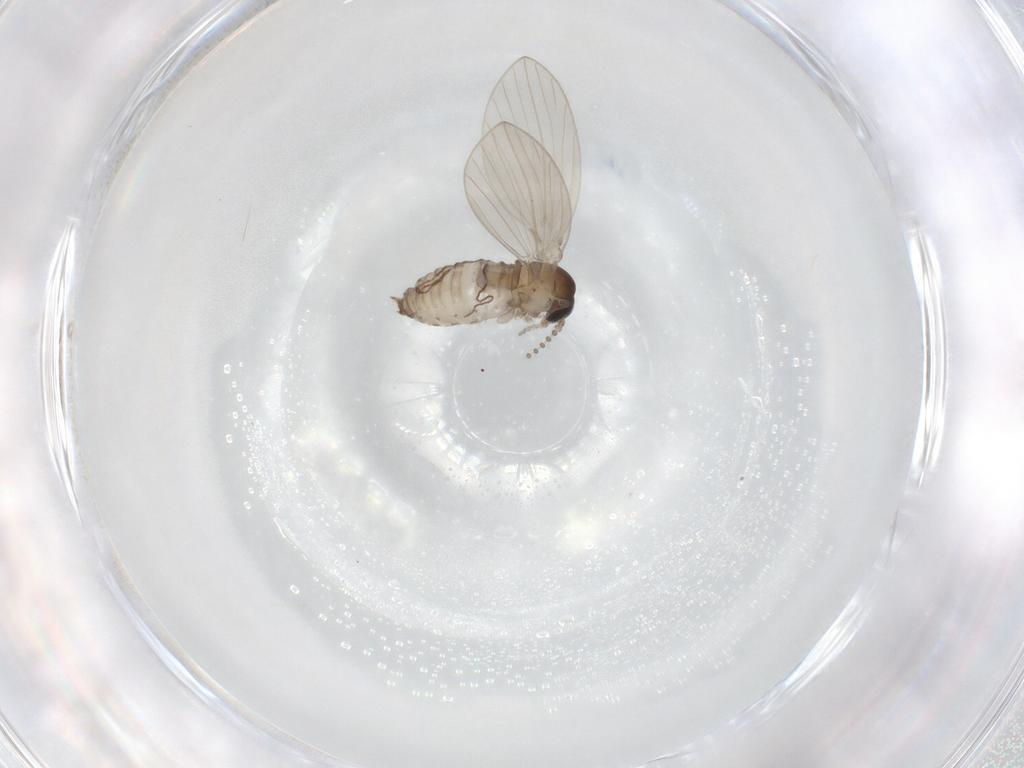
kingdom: Animalia
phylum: Arthropoda
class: Insecta
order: Diptera
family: Psychodidae
